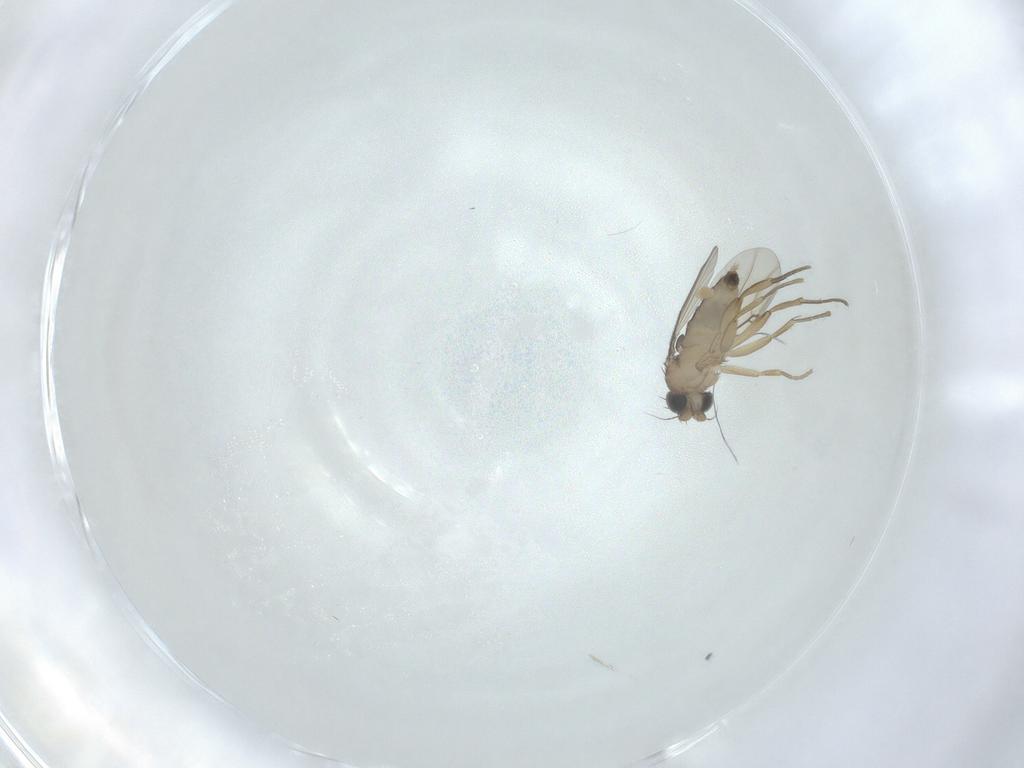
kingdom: Animalia
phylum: Arthropoda
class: Insecta
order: Diptera
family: Phoridae
